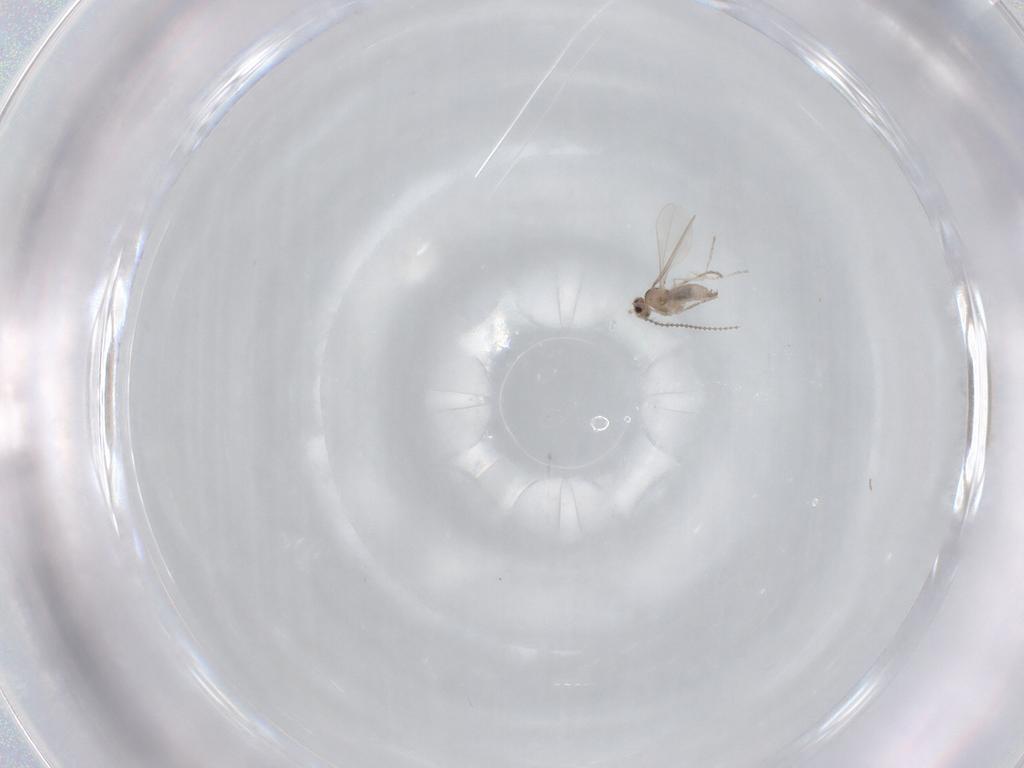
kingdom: Animalia
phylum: Arthropoda
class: Insecta
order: Diptera
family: Cecidomyiidae
